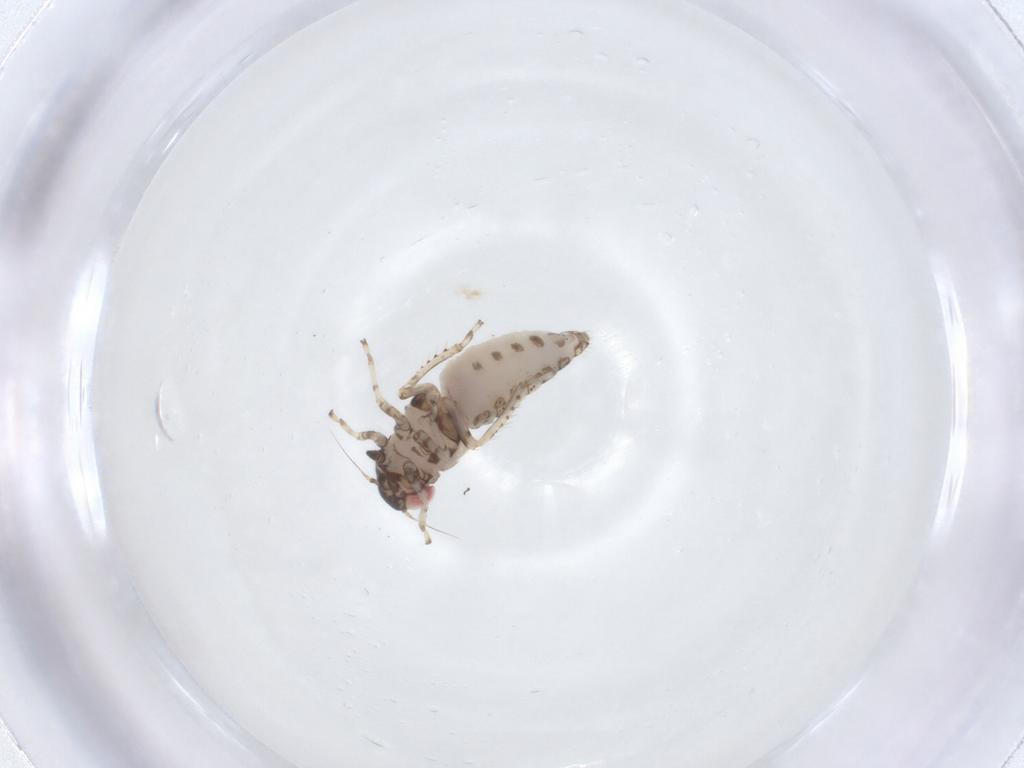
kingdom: Animalia
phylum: Arthropoda
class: Insecta
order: Hemiptera
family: Cicadellidae
